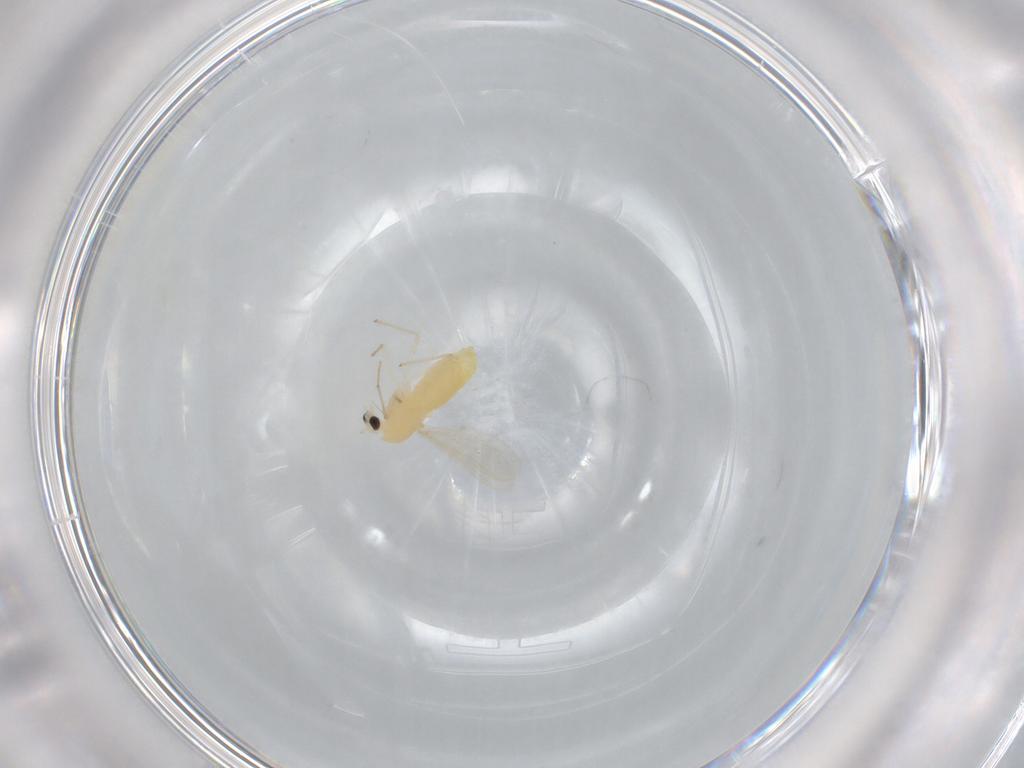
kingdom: Animalia
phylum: Arthropoda
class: Insecta
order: Diptera
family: Chironomidae
